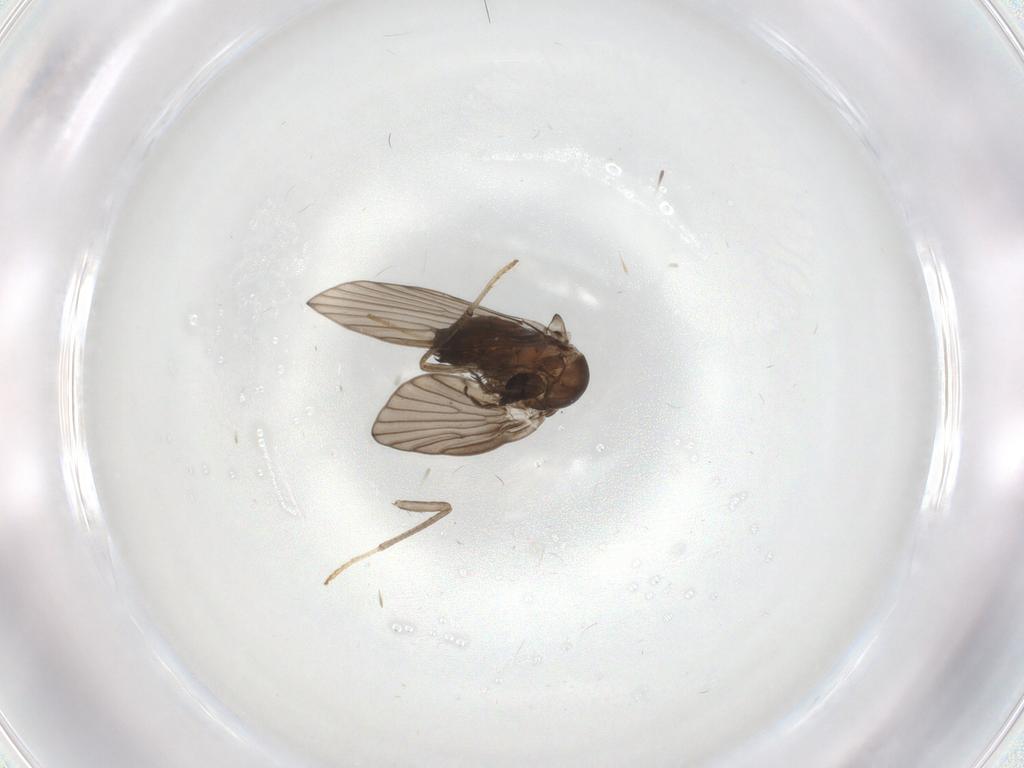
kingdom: Animalia
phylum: Arthropoda
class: Insecta
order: Diptera
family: Psychodidae
